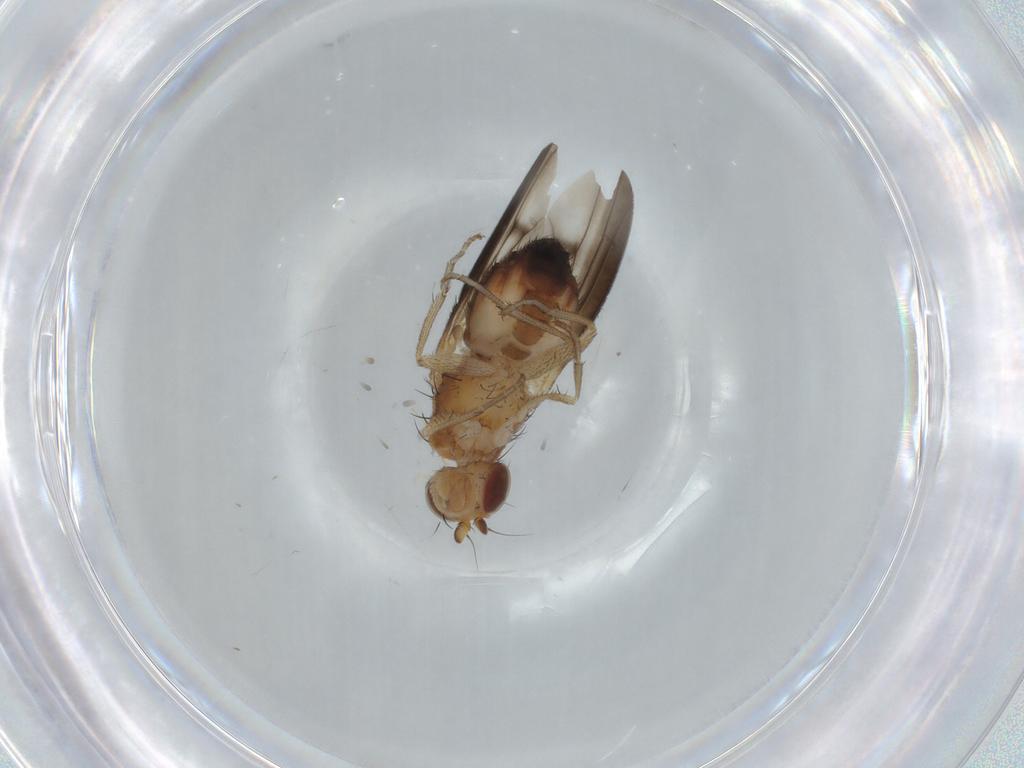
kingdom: Animalia
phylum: Arthropoda
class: Insecta
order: Diptera
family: Heleomyzidae
